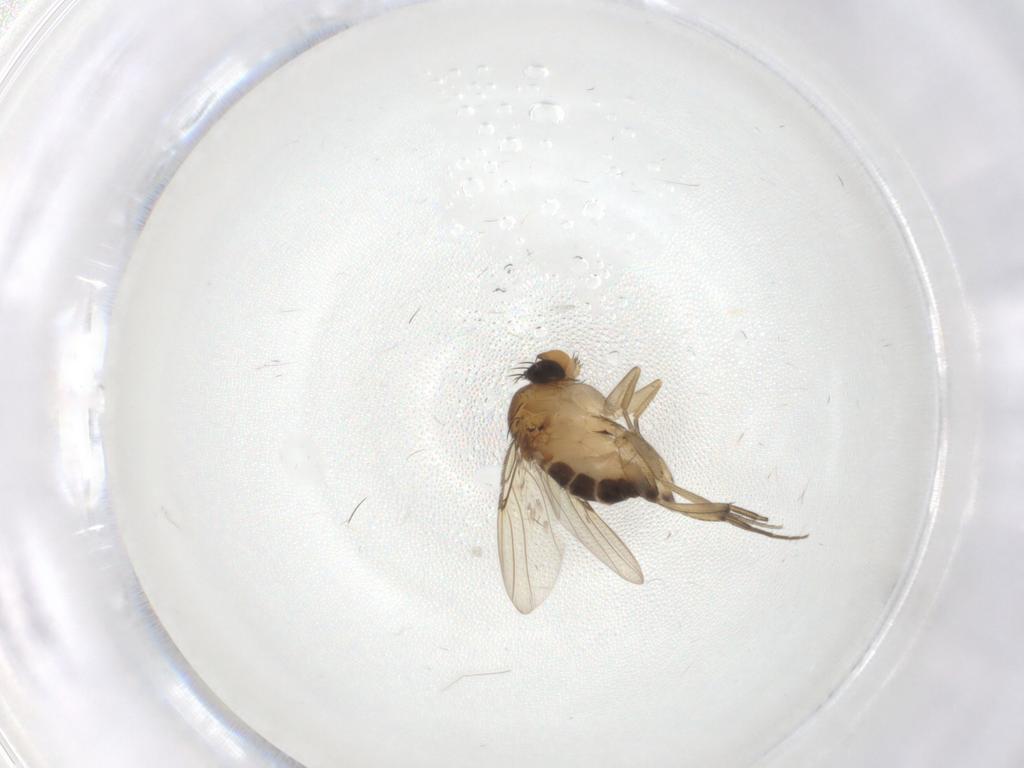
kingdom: Animalia
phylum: Arthropoda
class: Insecta
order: Diptera
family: Psychodidae
